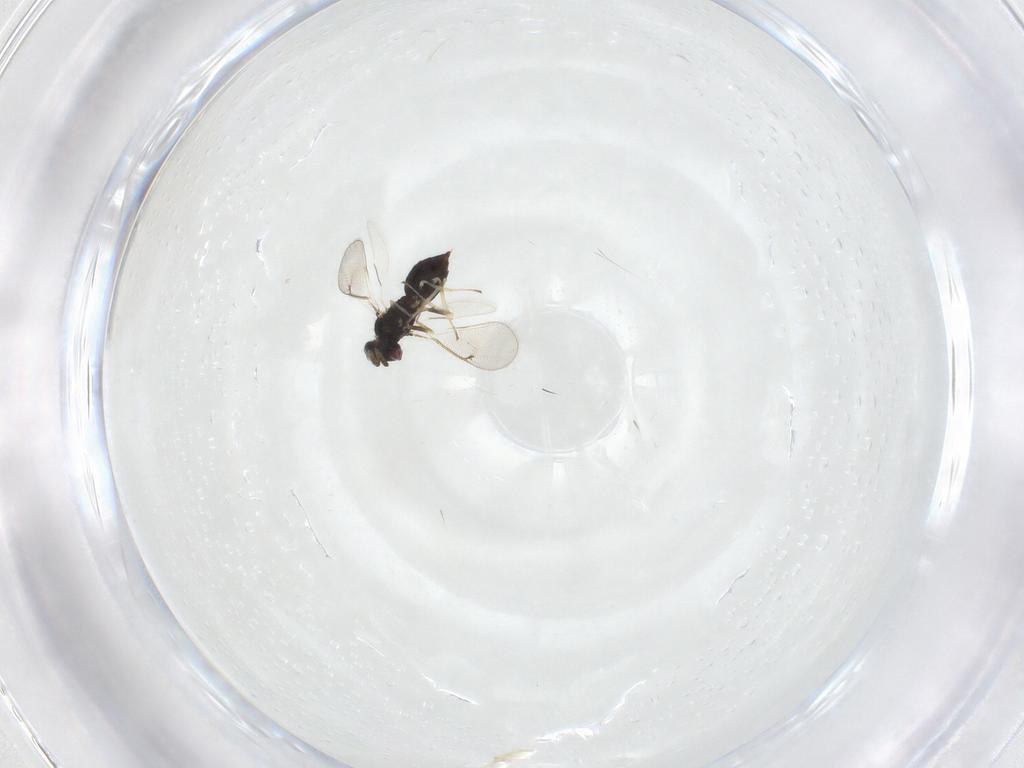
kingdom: Animalia
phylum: Arthropoda
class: Insecta
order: Hymenoptera
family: Eulophidae
